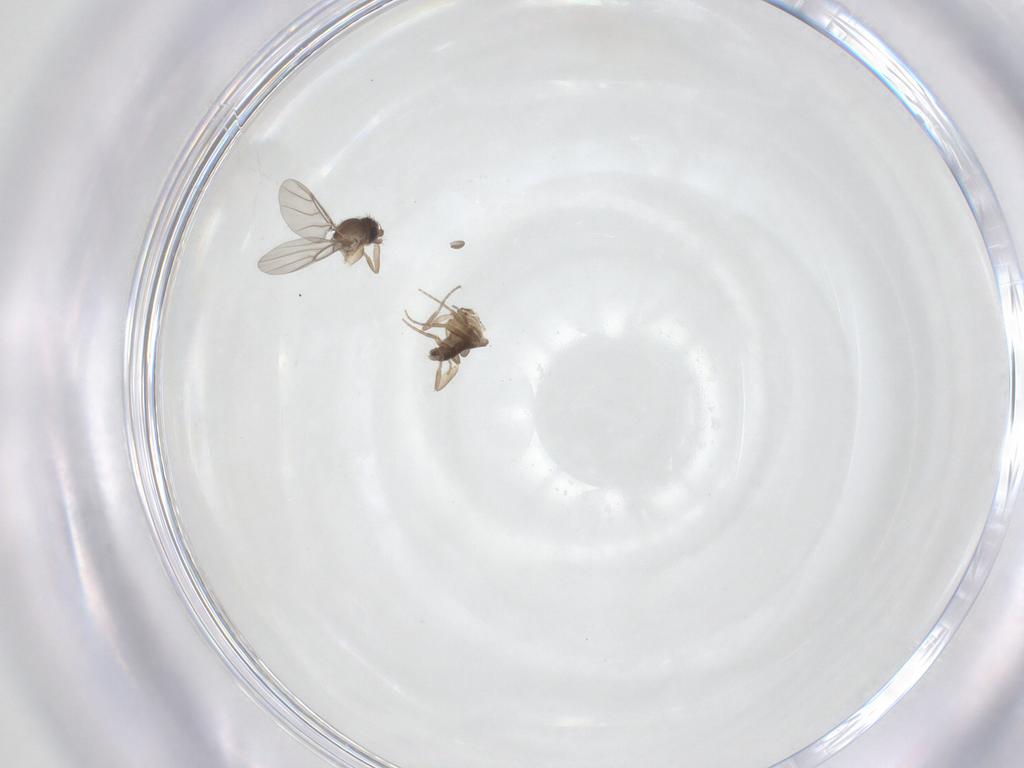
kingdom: Animalia
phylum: Arthropoda
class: Insecta
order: Diptera
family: Phoridae
